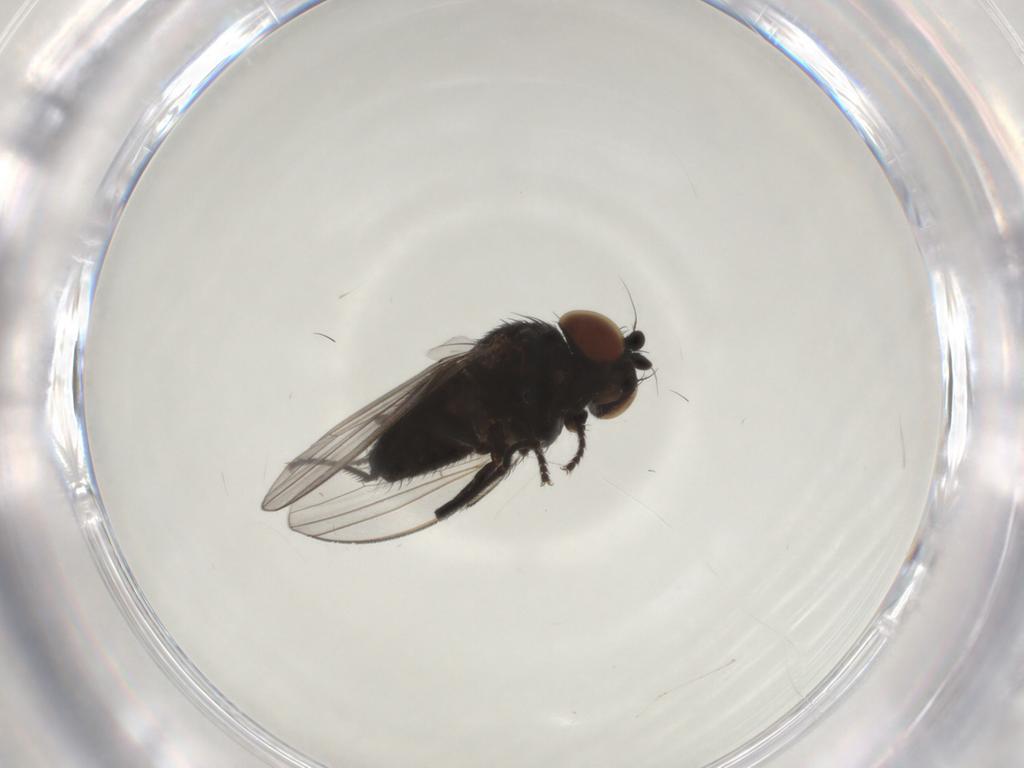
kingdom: Animalia
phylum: Arthropoda
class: Insecta
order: Diptera
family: Milichiidae
